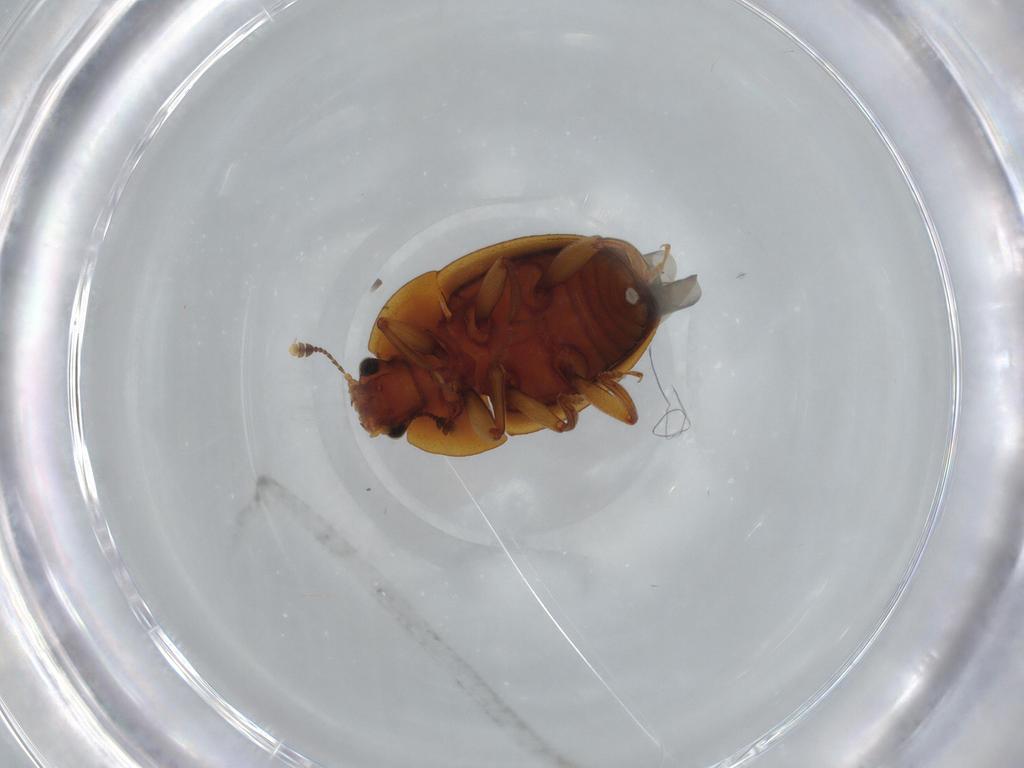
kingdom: Animalia
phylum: Arthropoda
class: Insecta
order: Coleoptera
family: Nitidulidae
